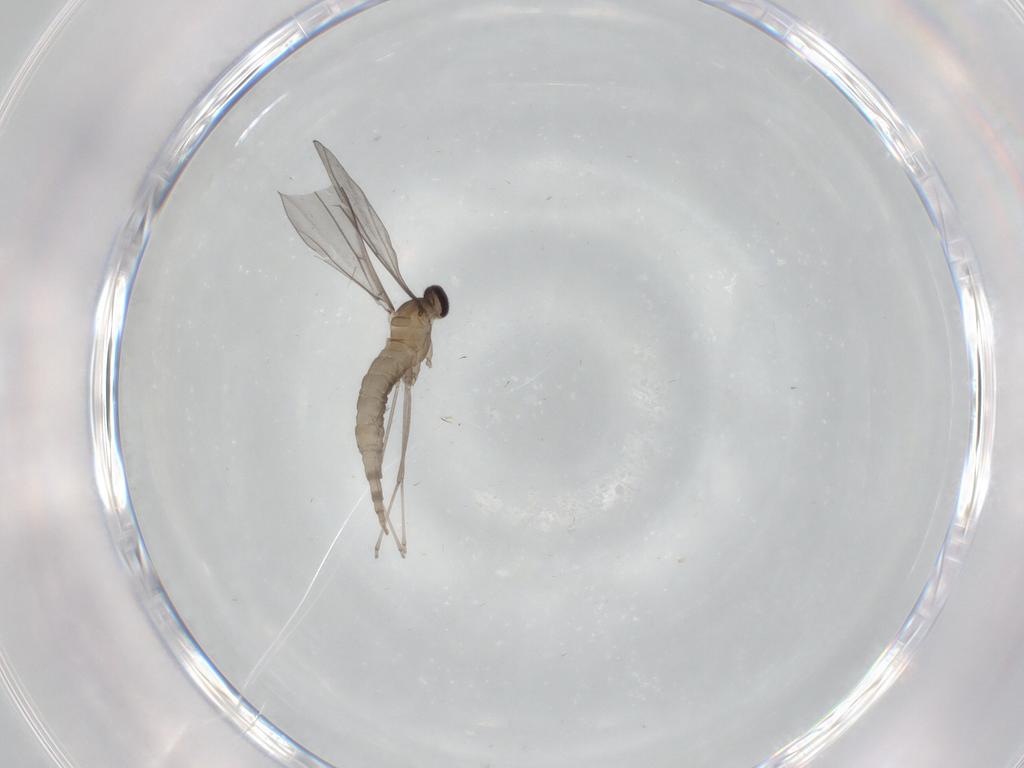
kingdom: Animalia
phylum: Arthropoda
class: Insecta
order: Diptera
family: Cecidomyiidae
